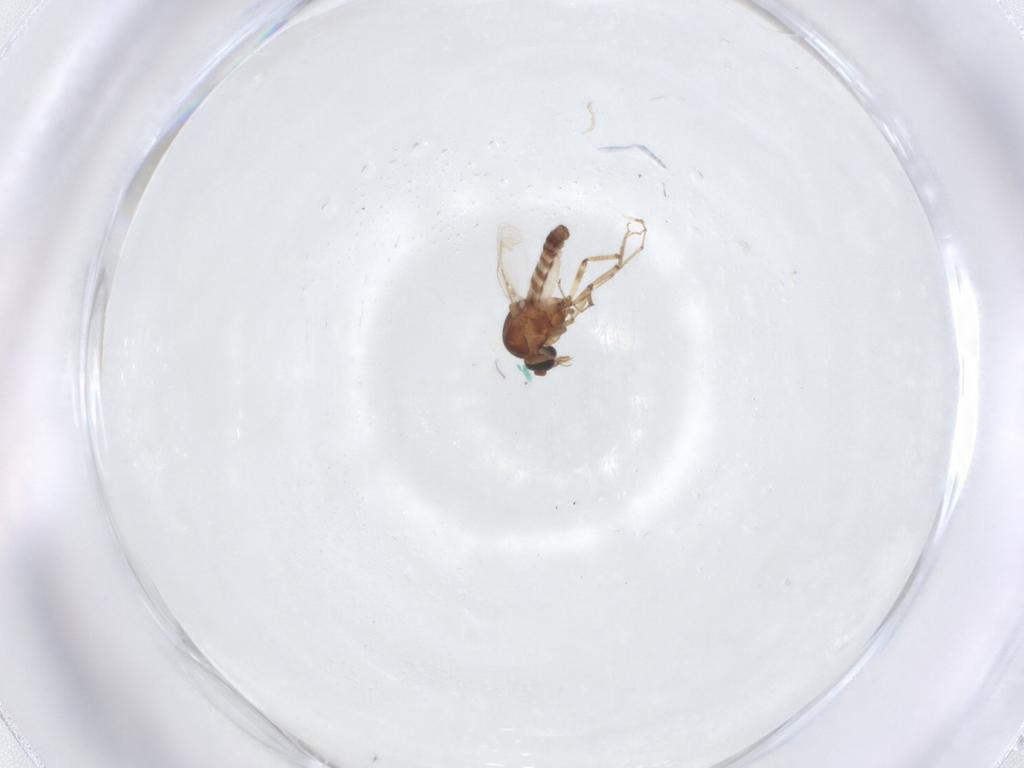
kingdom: Animalia
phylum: Arthropoda
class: Insecta
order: Diptera
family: Ceratopogonidae
